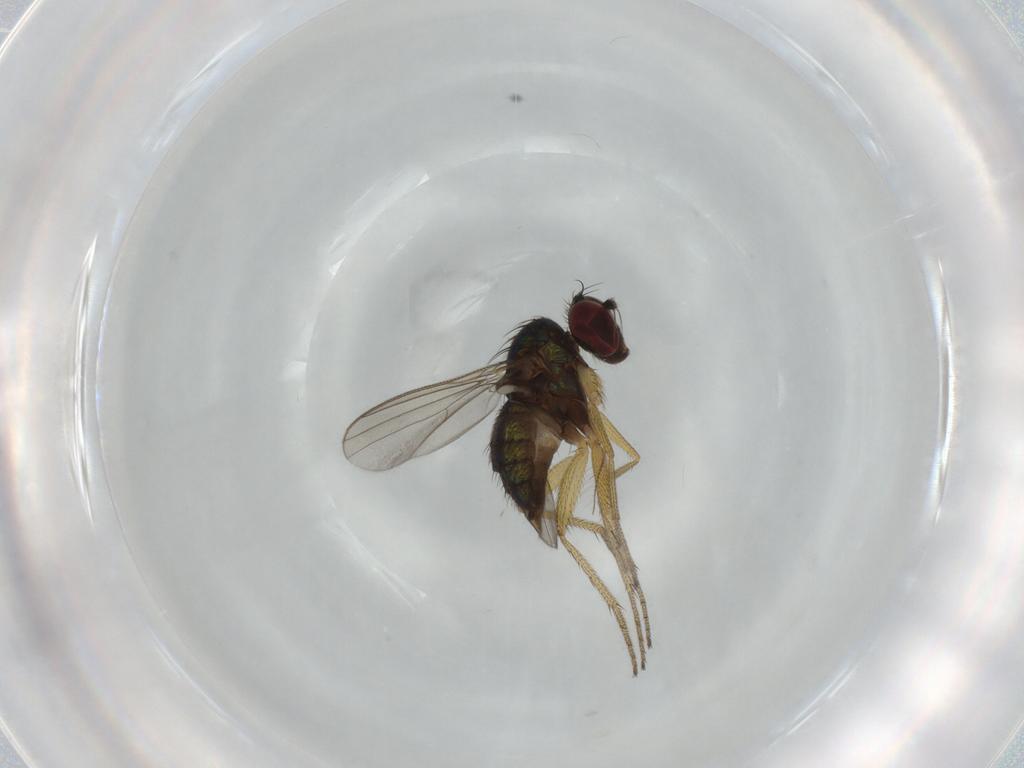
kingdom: Animalia
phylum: Arthropoda
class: Insecta
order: Diptera
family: Dolichopodidae
